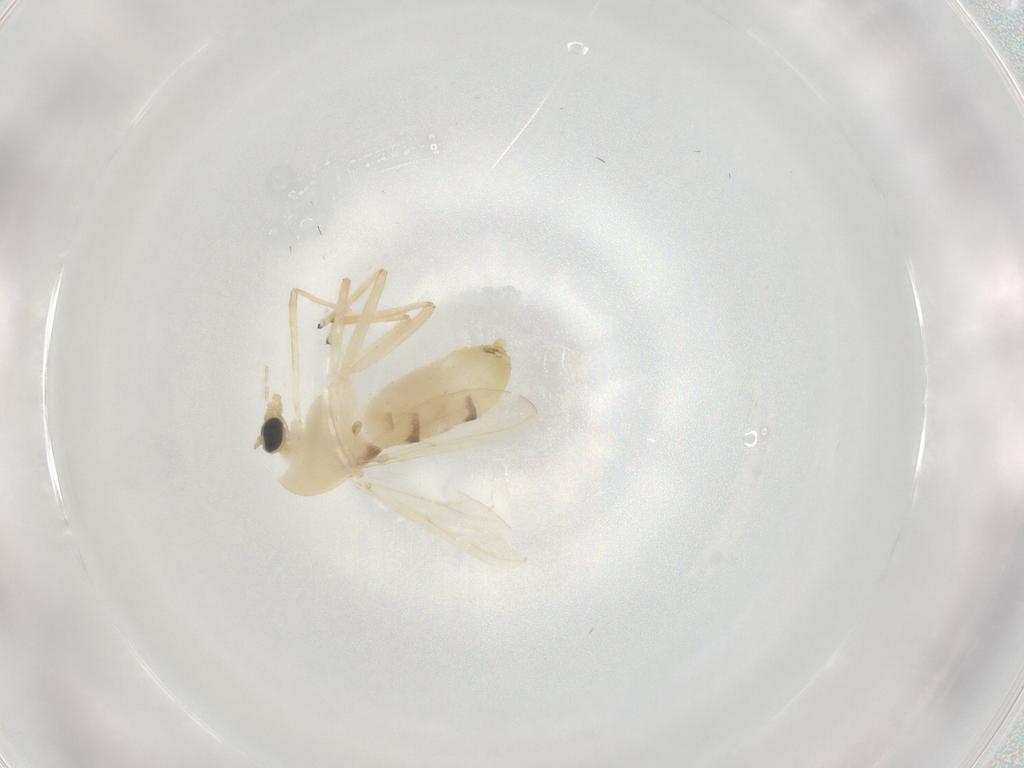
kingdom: Animalia
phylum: Arthropoda
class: Insecta
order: Diptera
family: Chironomidae
